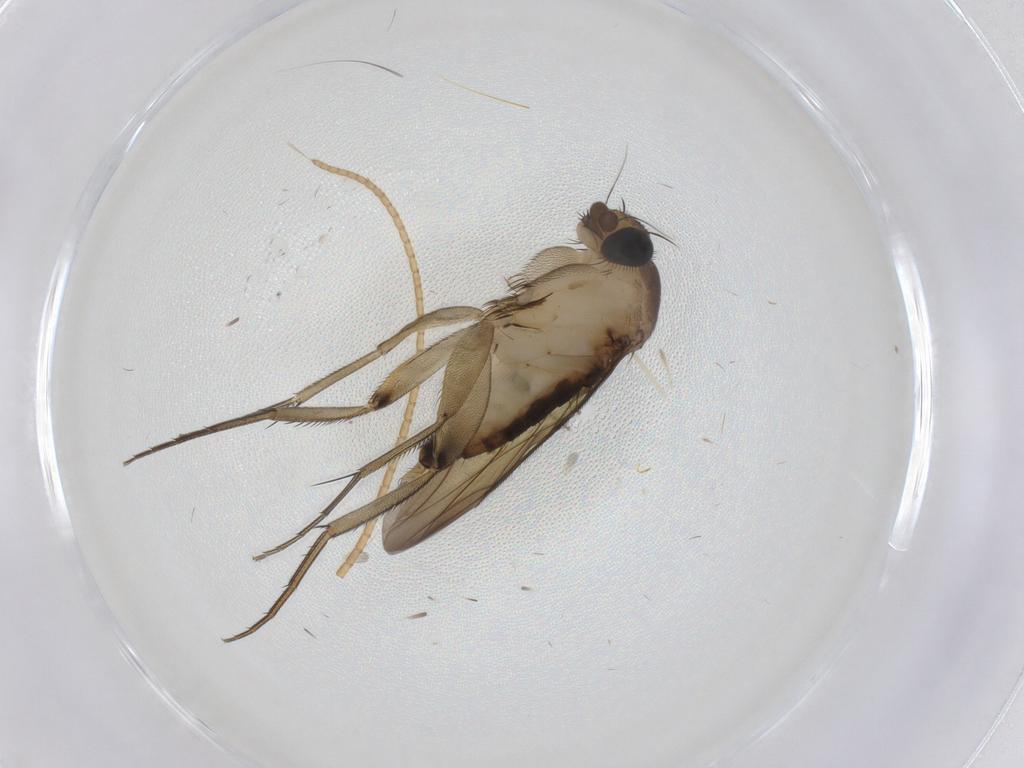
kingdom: Animalia
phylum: Arthropoda
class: Insecta
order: Diptera
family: Phoridae
